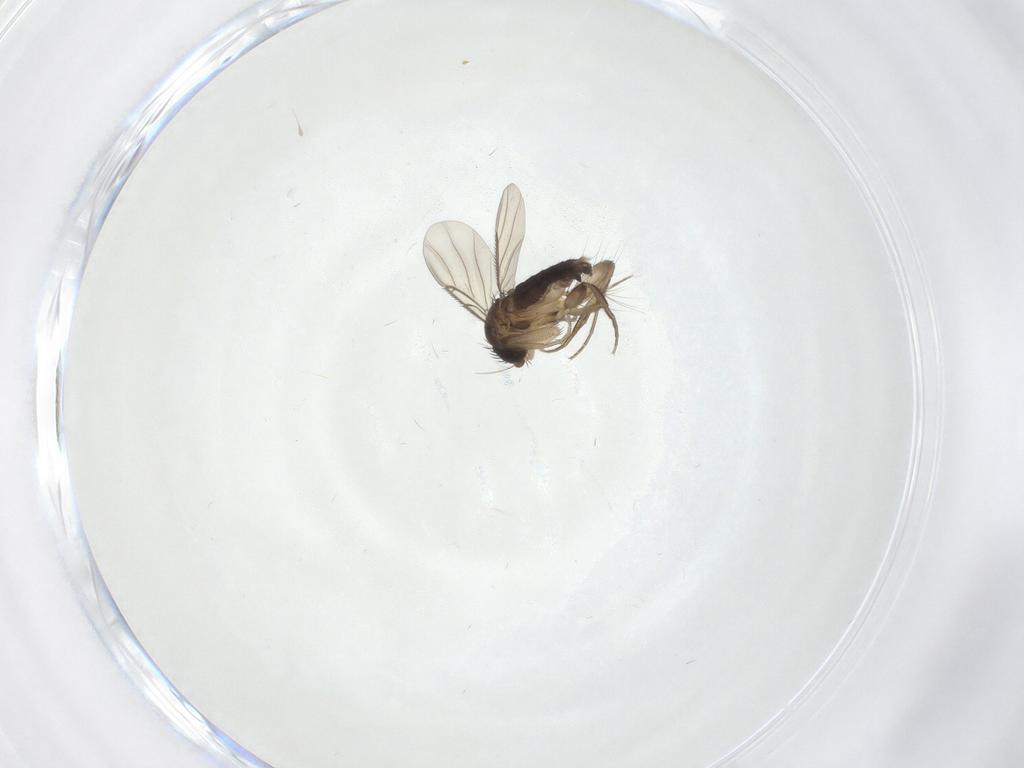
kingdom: Animalia
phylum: Arthropoda
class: Insecta
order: Diptera
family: Phoridae
